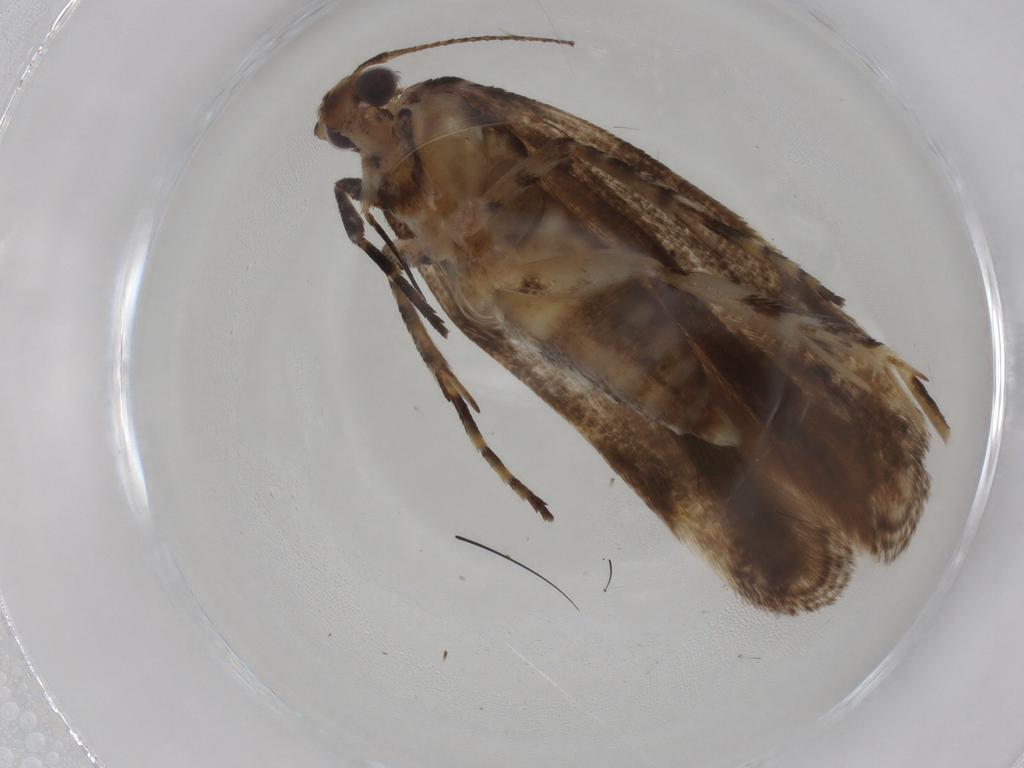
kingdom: Animalia
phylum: Arthropoda
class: Insecta
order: Lepidoptera
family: Gelechiidae
